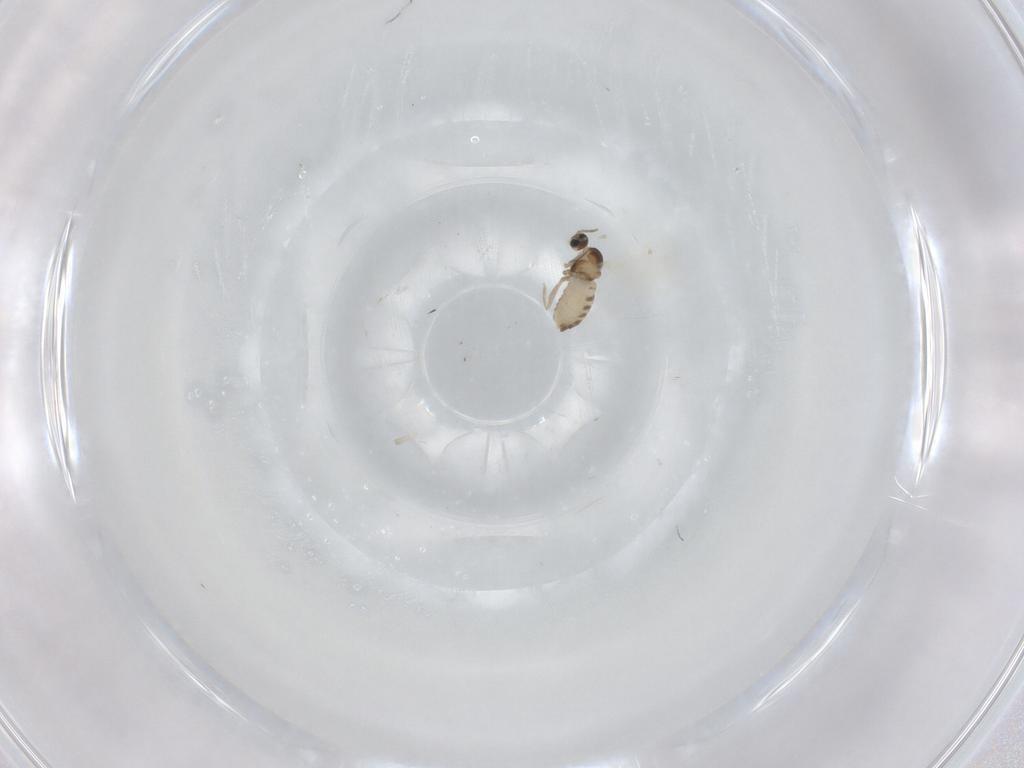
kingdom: Animalia
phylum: Arthropoda
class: Insecta
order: Diptera
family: Cecidomyiidae
